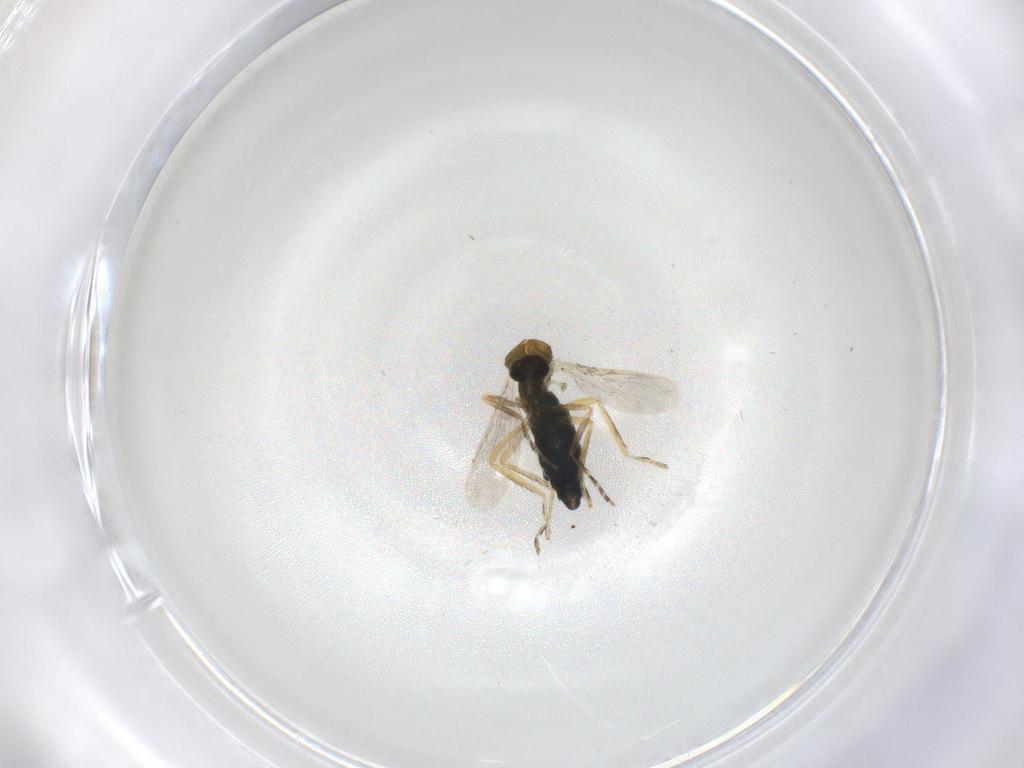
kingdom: Animalia
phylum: Arthropoda
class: Insecta
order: Diptera
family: Ceratopogonidae
